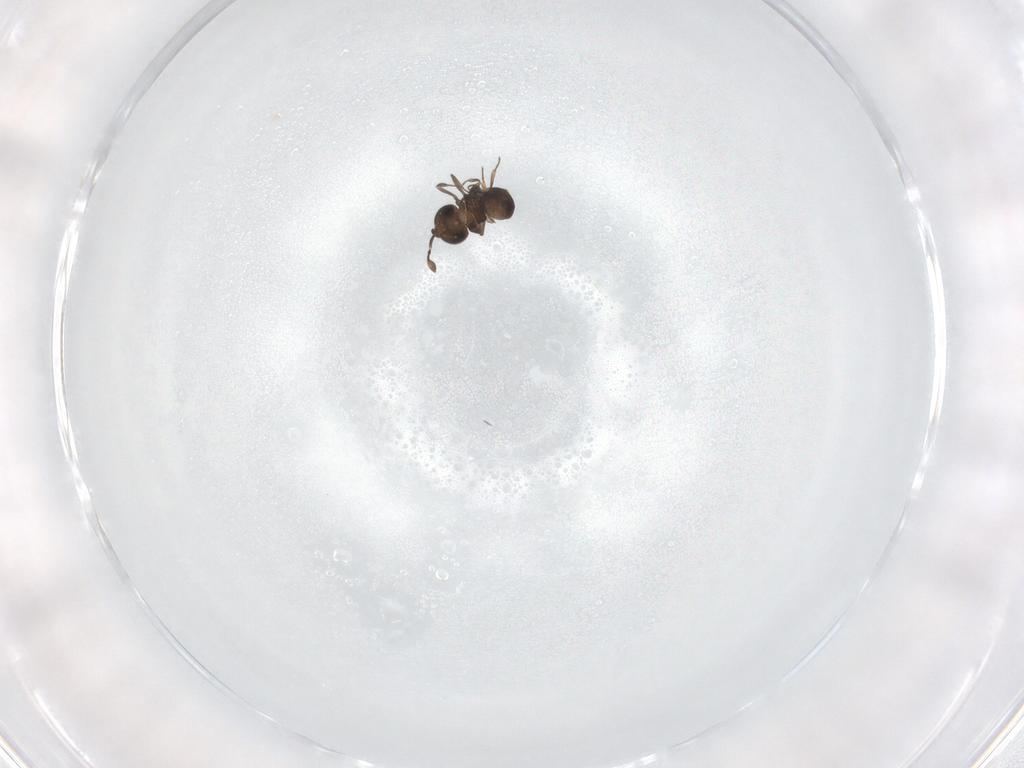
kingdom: Animalia
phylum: Arthropoda
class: Insecta
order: Hymenoptera
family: Scelionidae
